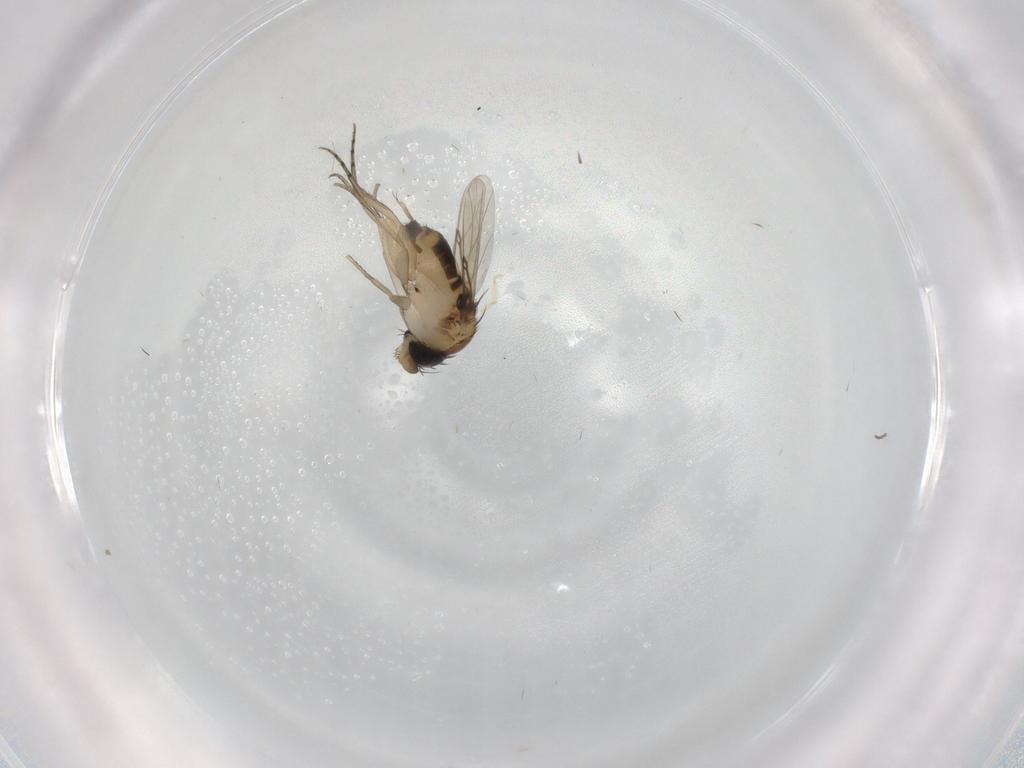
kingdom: Animalia
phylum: Arthropoda
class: Insecta
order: Diptera
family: Phoridae
